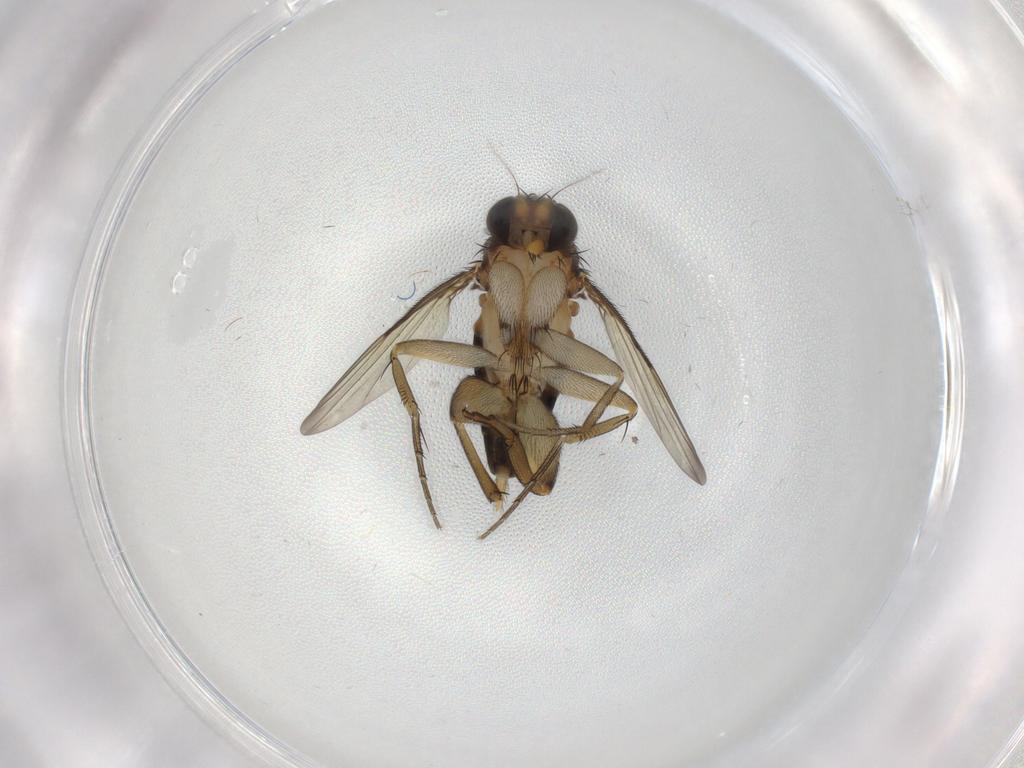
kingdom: Animalia
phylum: Arthropoda
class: Insecta
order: Diptera
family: Phoridae
